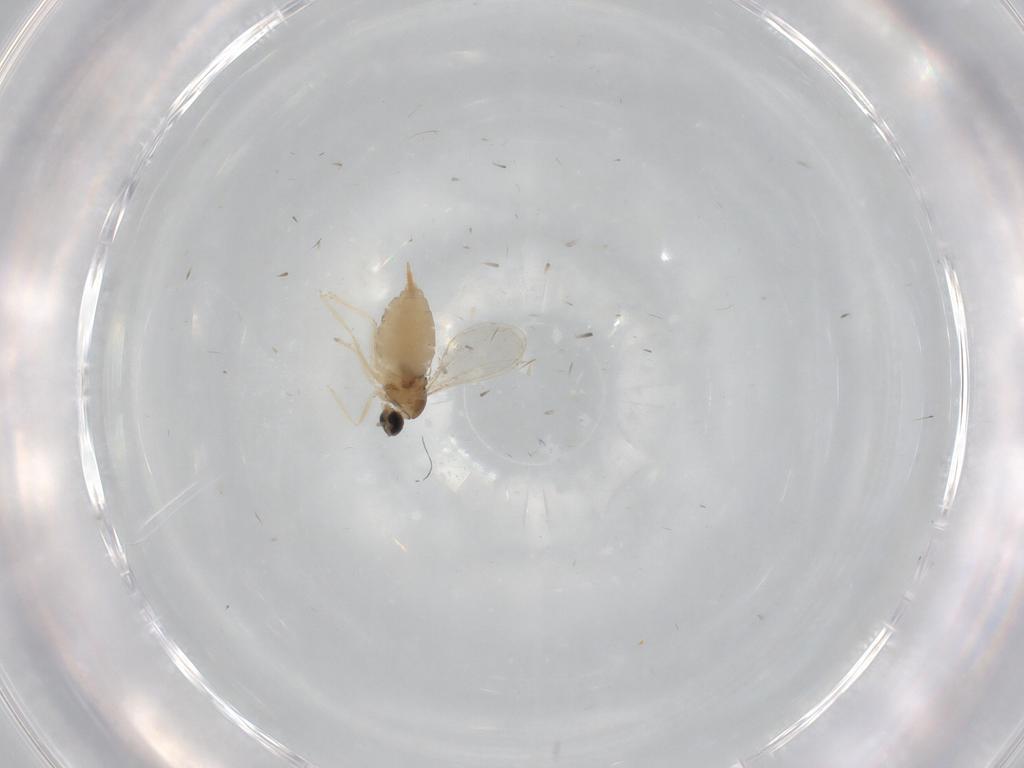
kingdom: Animalia
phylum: Arthropoda
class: Insecta
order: Diptera
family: Cecidomyiidae
